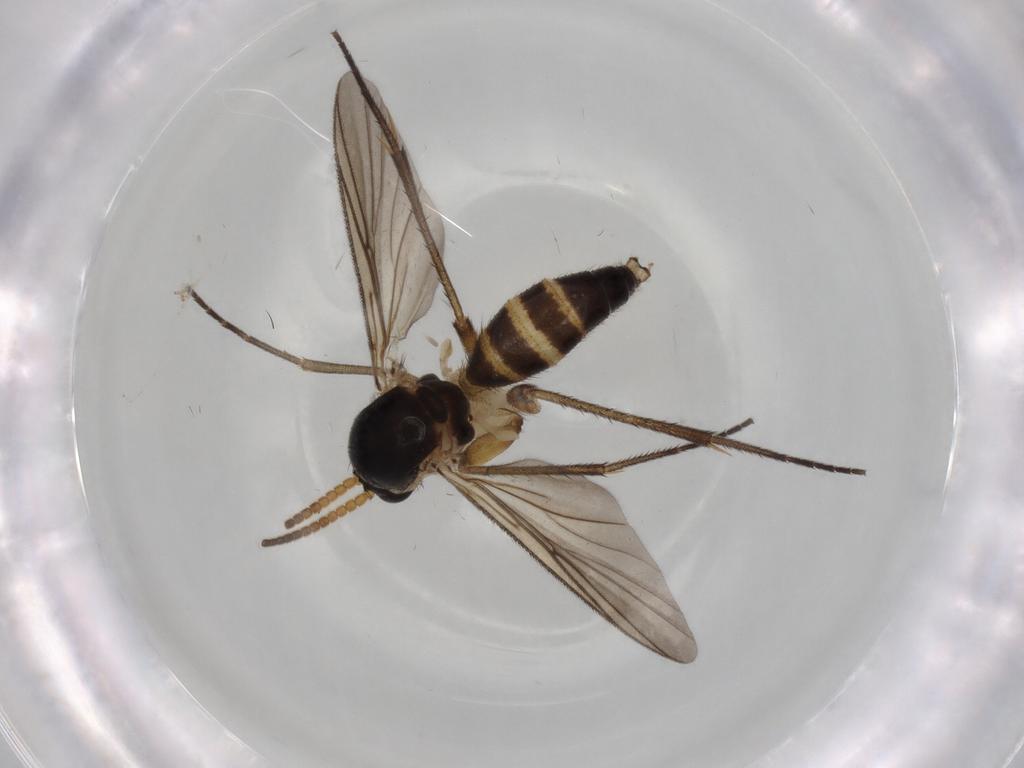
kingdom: Animalia
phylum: Arthropoda
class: Insecta
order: Diptera
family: Cecidomyiidae
